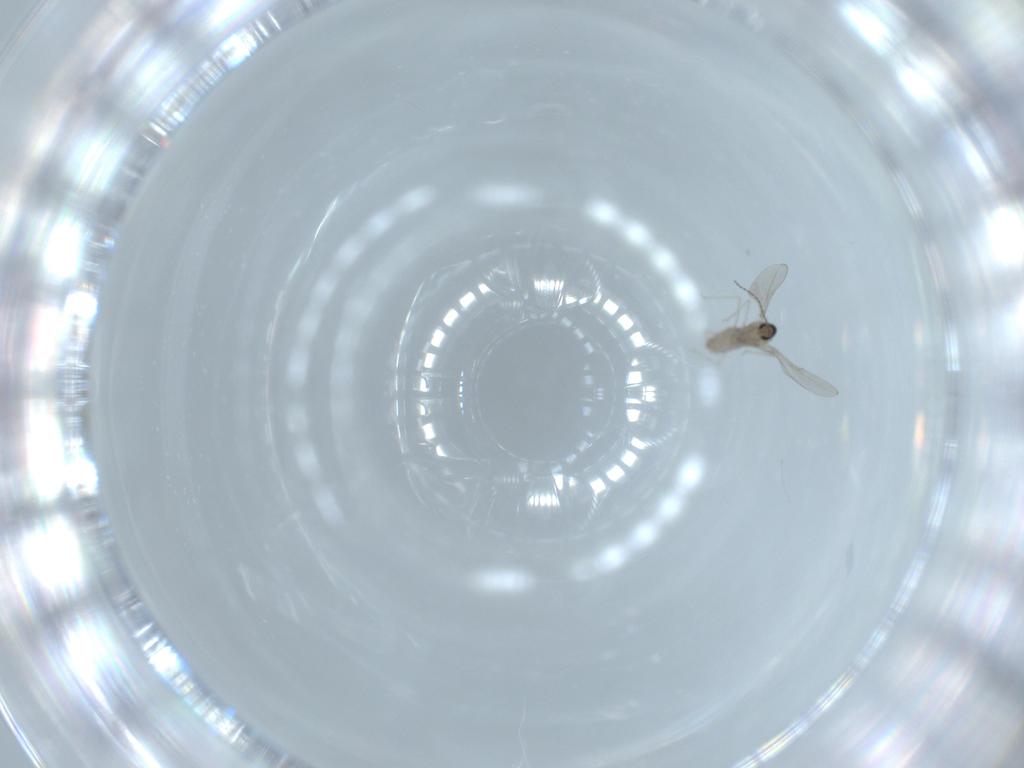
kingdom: Animalia
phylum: Arthropoda
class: Insecta
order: Diptera
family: Cecidomyiidae
